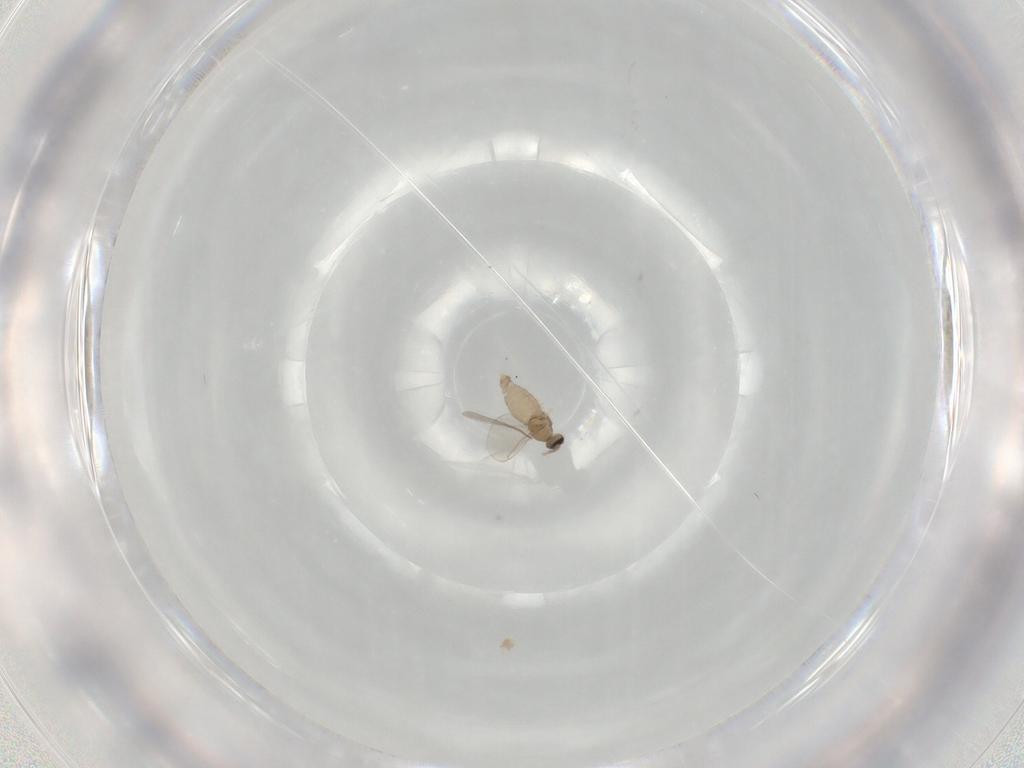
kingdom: Animalia
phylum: Arthropoda
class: Insecta
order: Diptera
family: Cecidomyiidae
